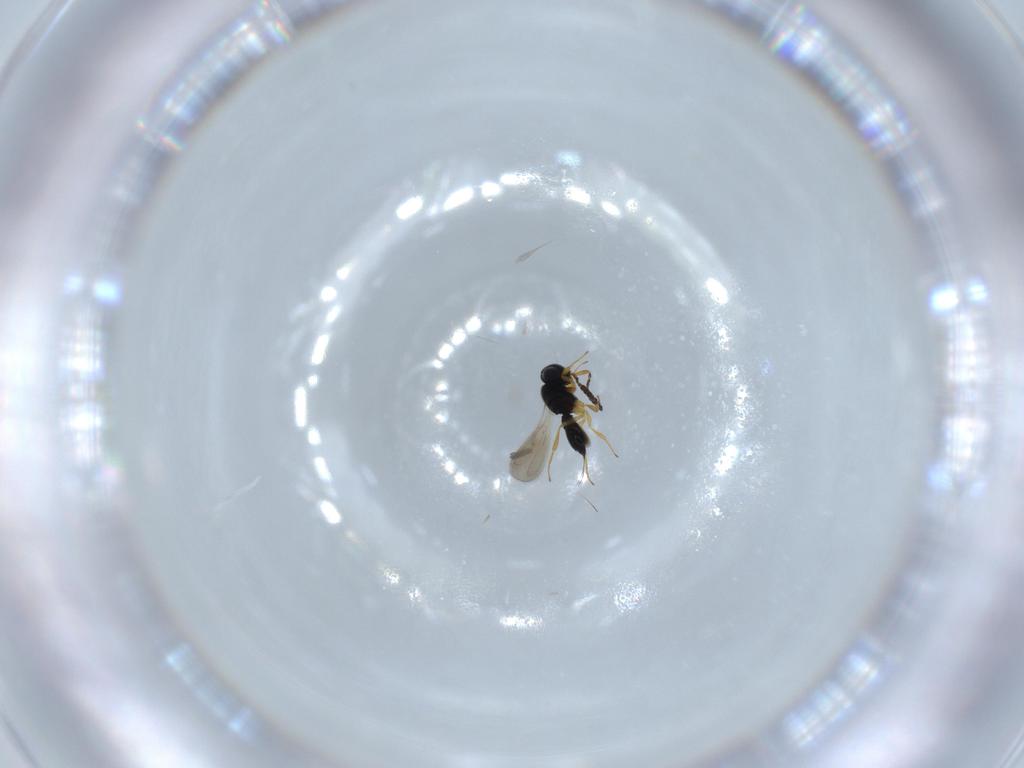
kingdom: Animalia
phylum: Arthropoda
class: Insecta
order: Hymenoptera
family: Scelionidae
